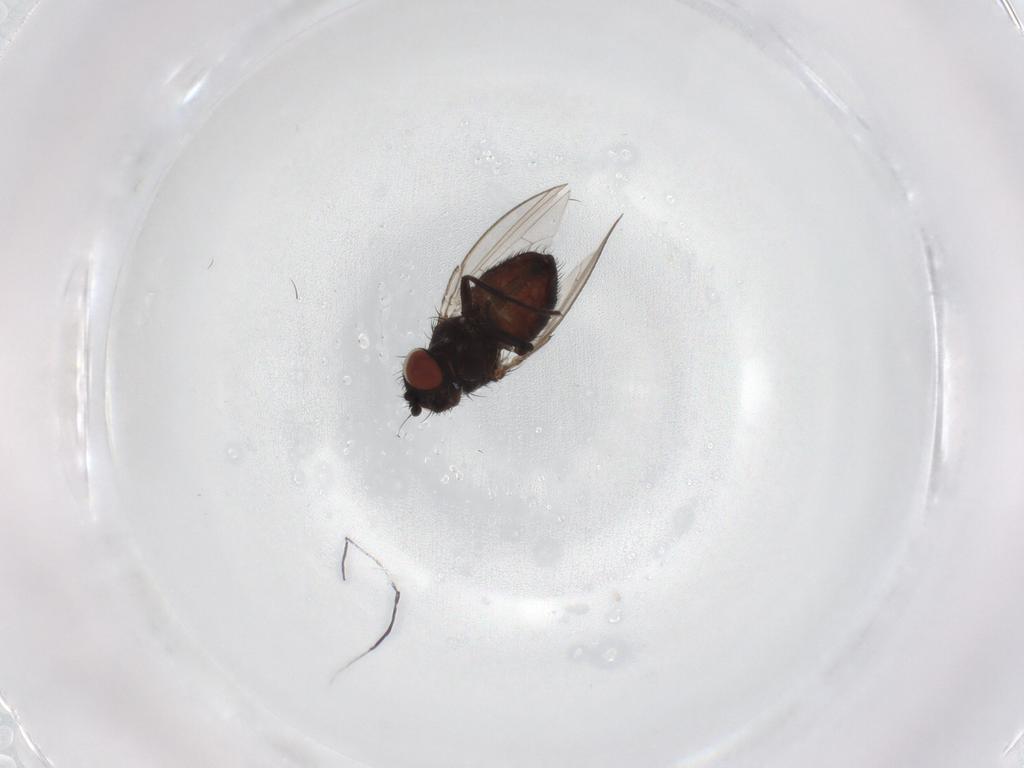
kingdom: Animalia
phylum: Arthropoda
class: Insecta
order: Diptera
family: Milichiidae
